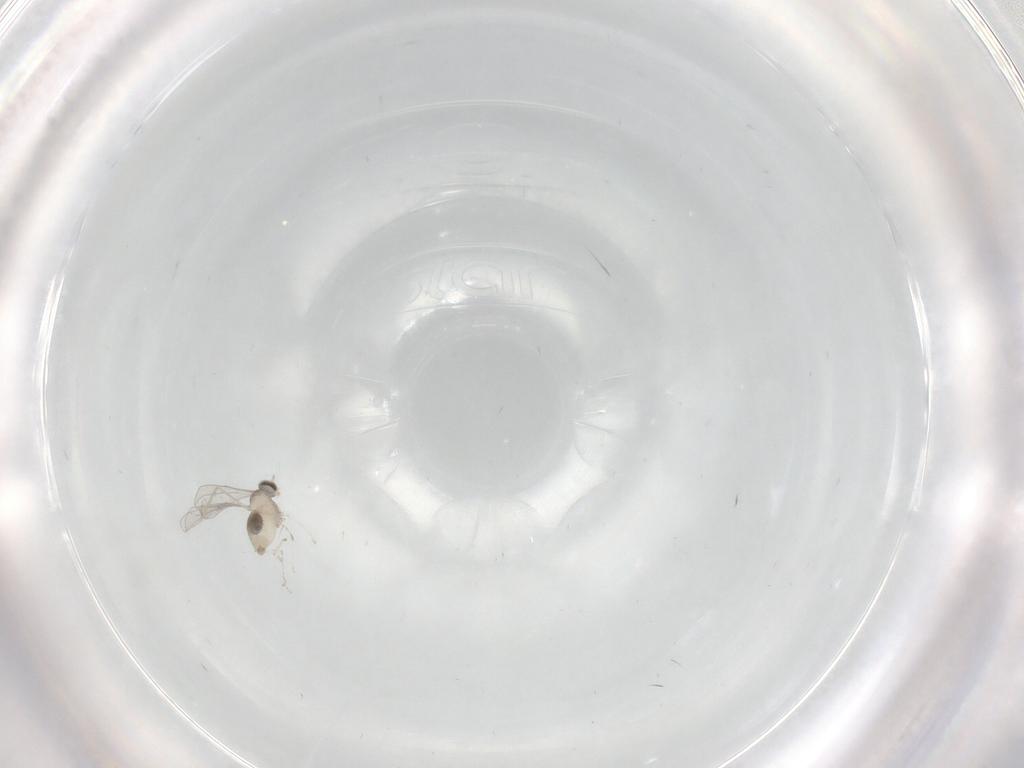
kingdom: Animalia
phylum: Arthropoda
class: Insecta
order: Diptera
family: Cecidomyiidae
